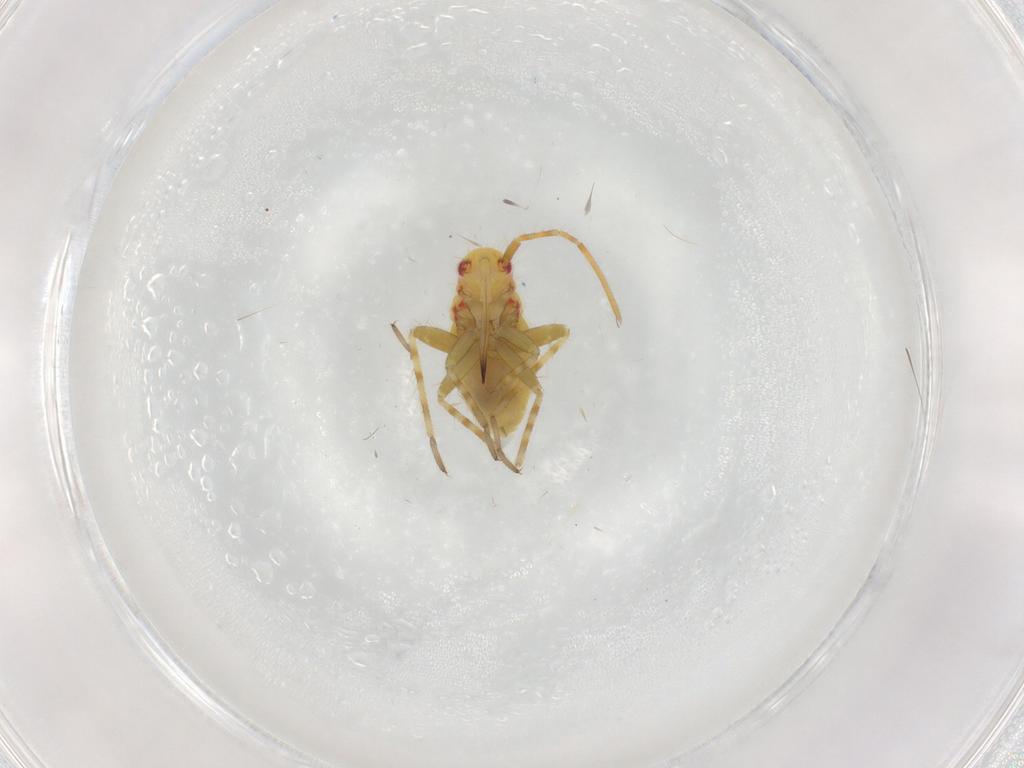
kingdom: Animalia
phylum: Arthropoda
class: Insecta
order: Hemiptera
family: Miridae
